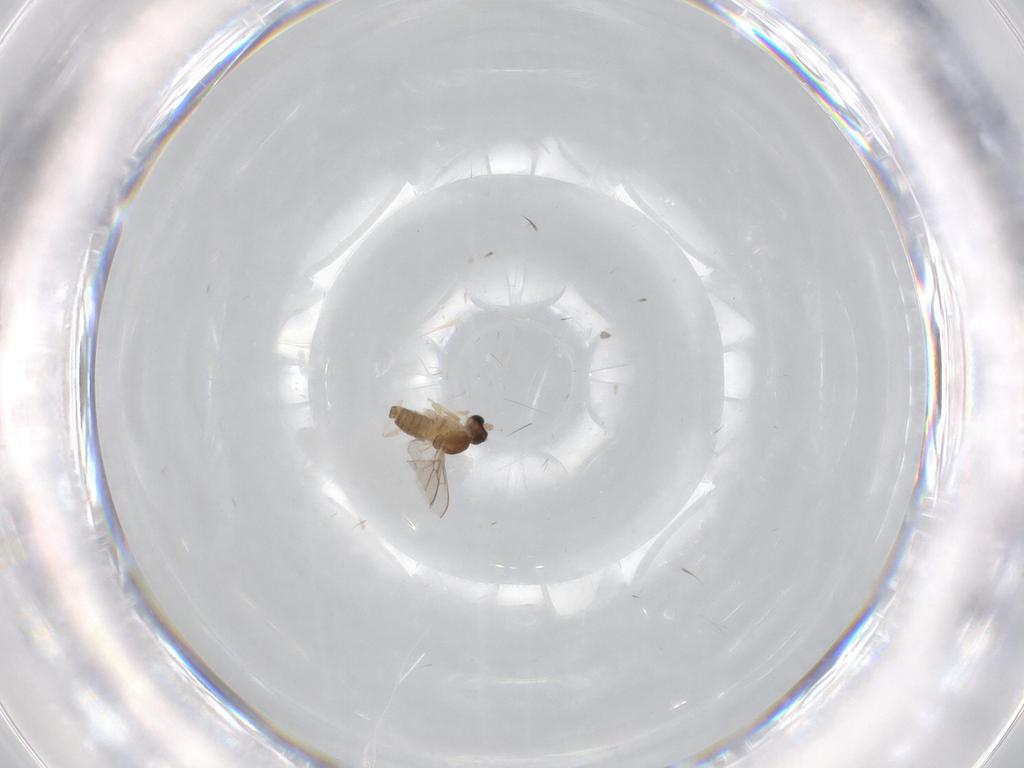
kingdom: Animalia
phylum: Arthropoda
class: Insecta
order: Diptera
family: Cecidomyiidae
